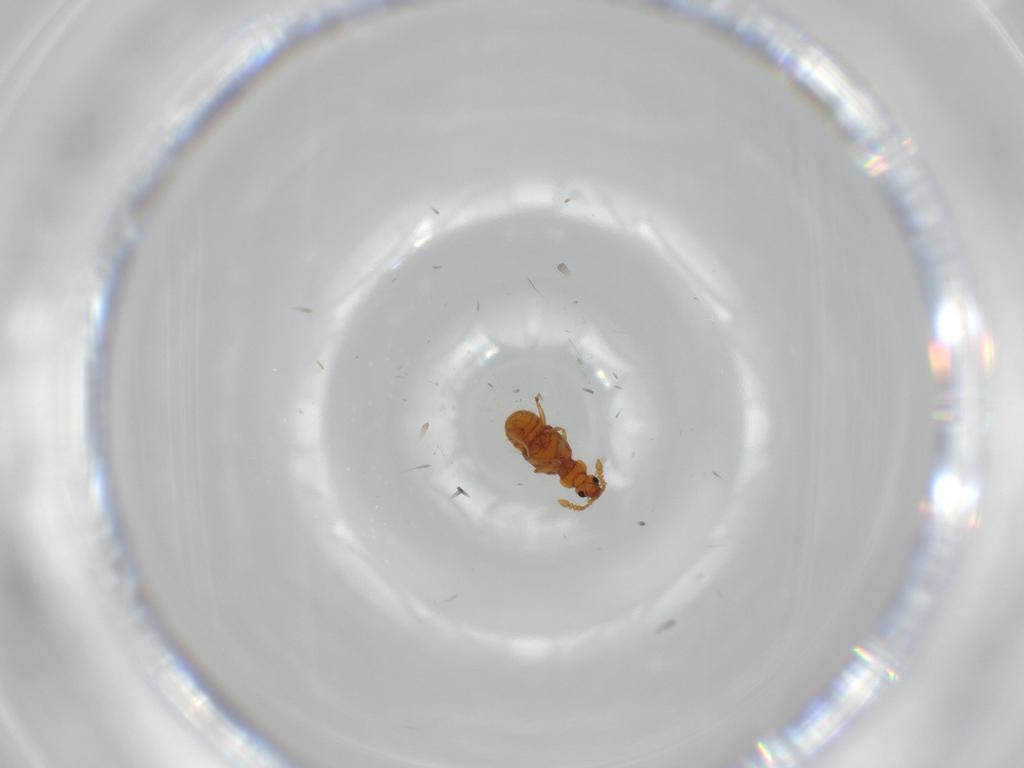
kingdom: Animalia
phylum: Arthropoda
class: Insecta
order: Coleoptera
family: Staphylinidae
